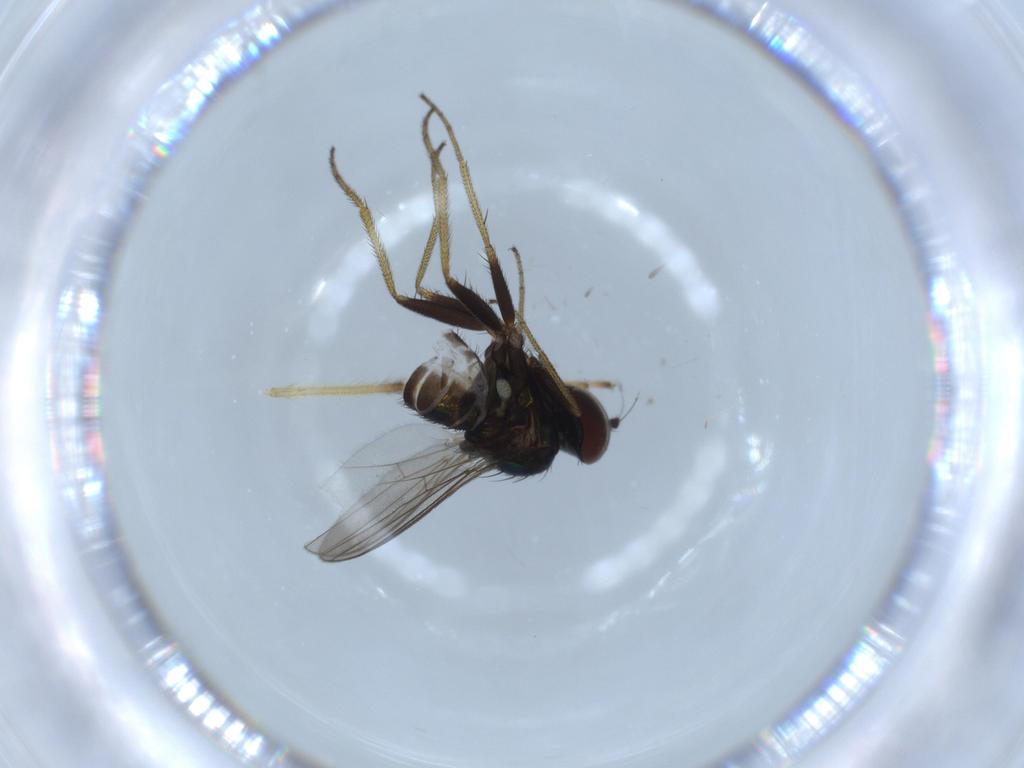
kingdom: Animalia
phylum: Arthropoda
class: Insecta
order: Diptera
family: Chironomidae
